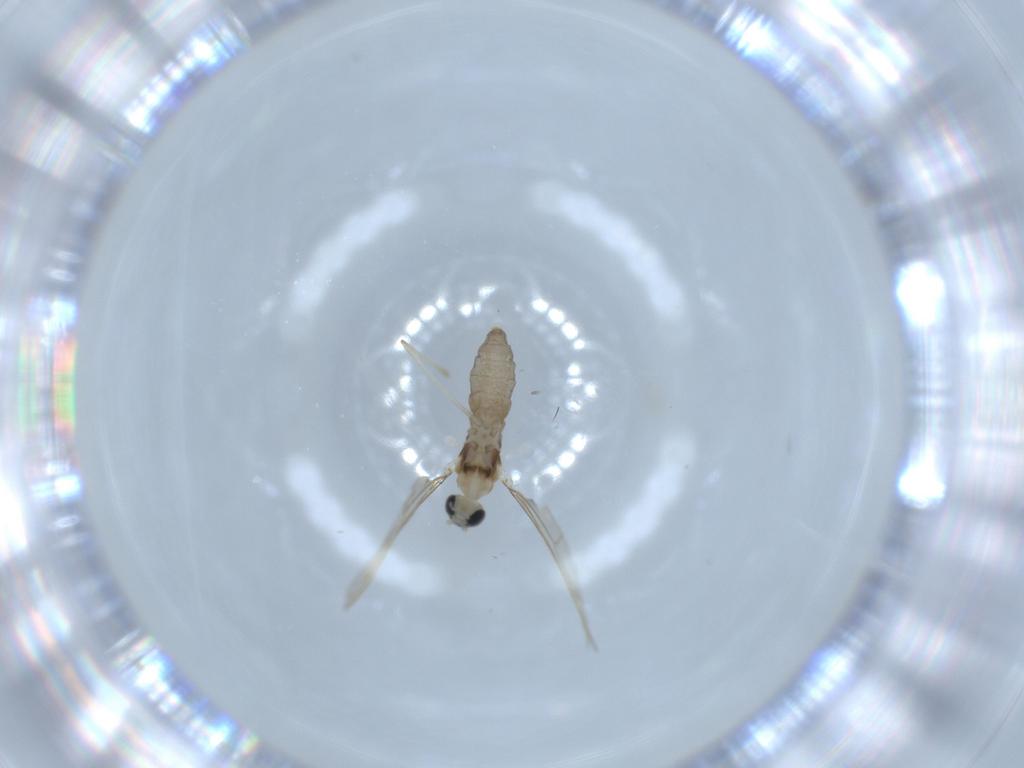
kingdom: Animalia
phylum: Arthropoda
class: Insecta
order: Diptera
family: Cecidomyiidae
